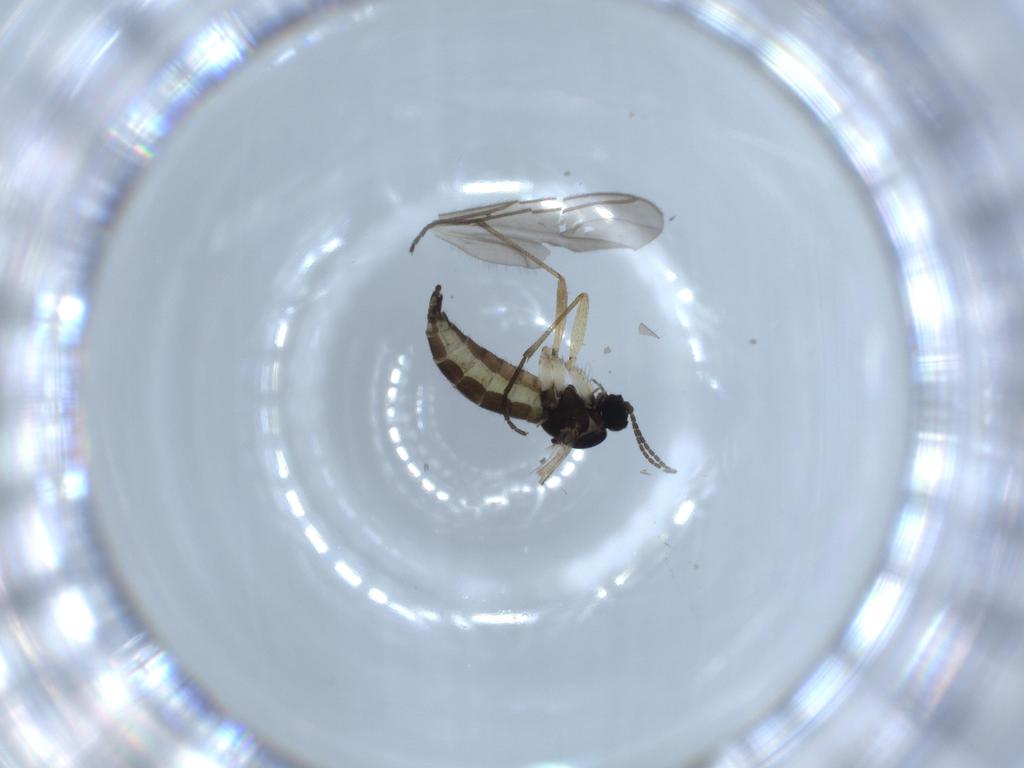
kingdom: Animalia
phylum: Arthropoda
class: Insecta
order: Diptera
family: Sciaridae
